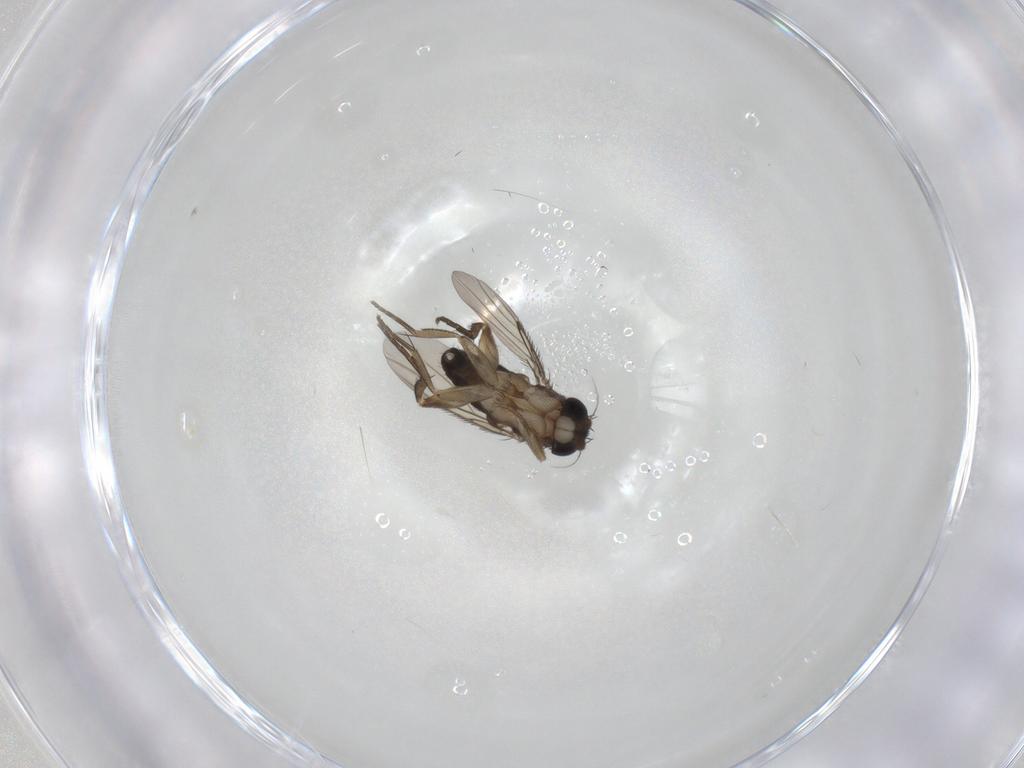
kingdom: Animalia
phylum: Arthropoda
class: Insecta
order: Diptera
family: Phoridae
